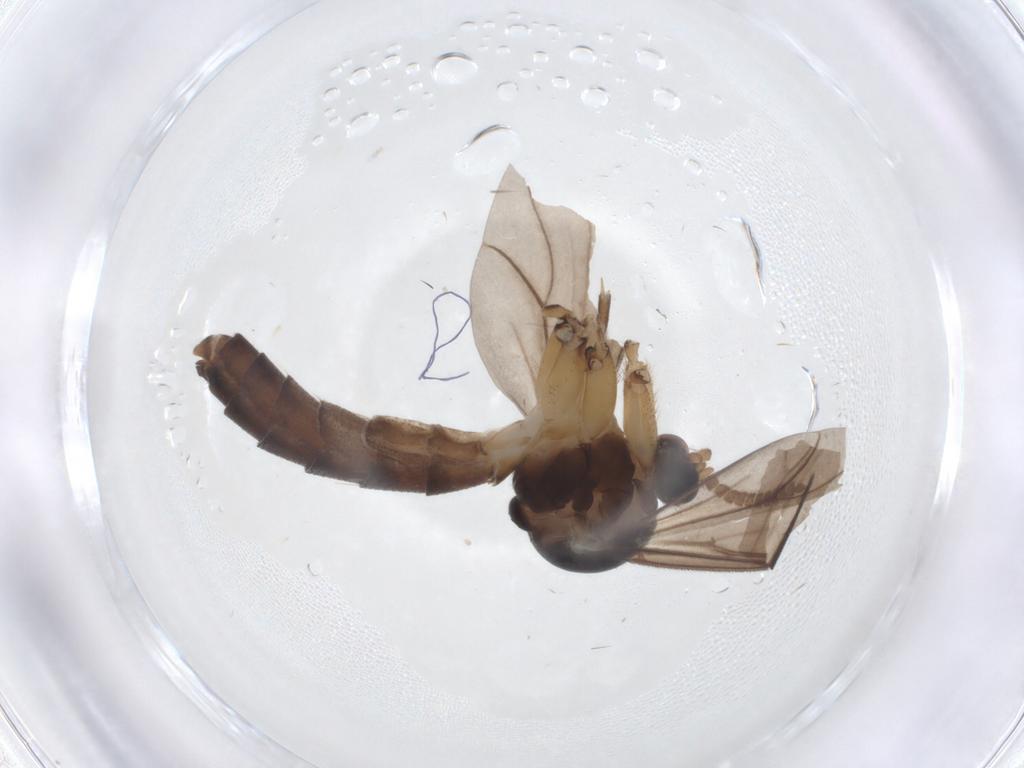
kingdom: Animalia
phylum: Arthropoda
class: Insecta
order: Diptera
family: Mycetophilidae
